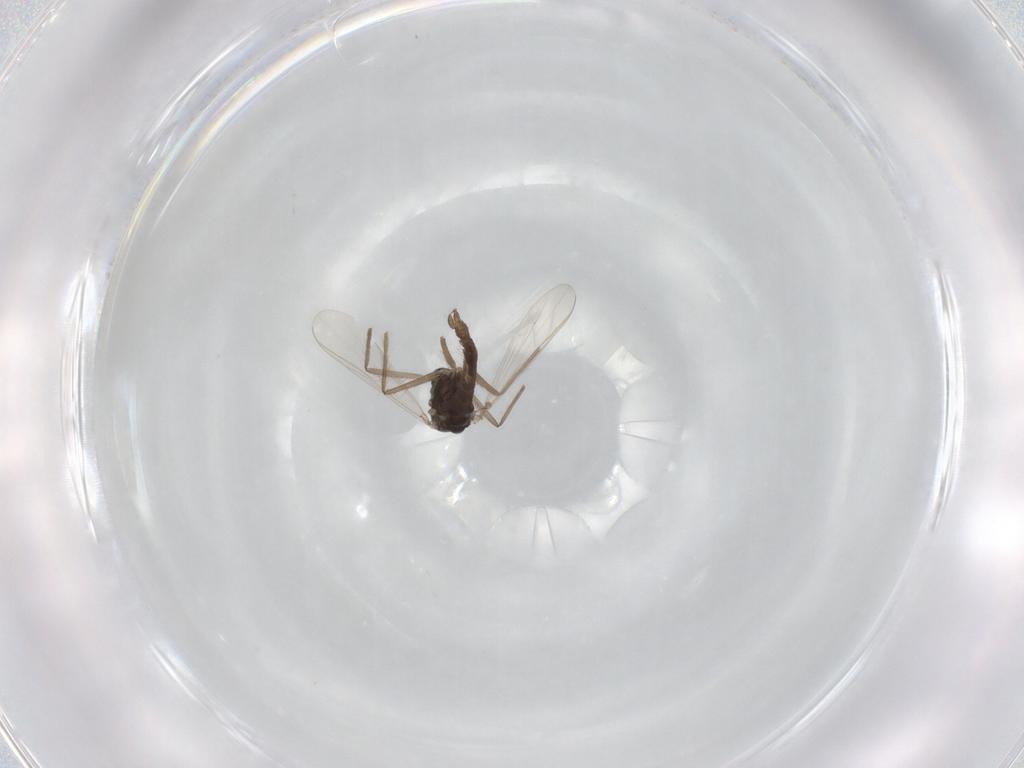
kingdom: Animalia
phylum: Arthropoda
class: Insecta
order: Diptera
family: Chironomidae
